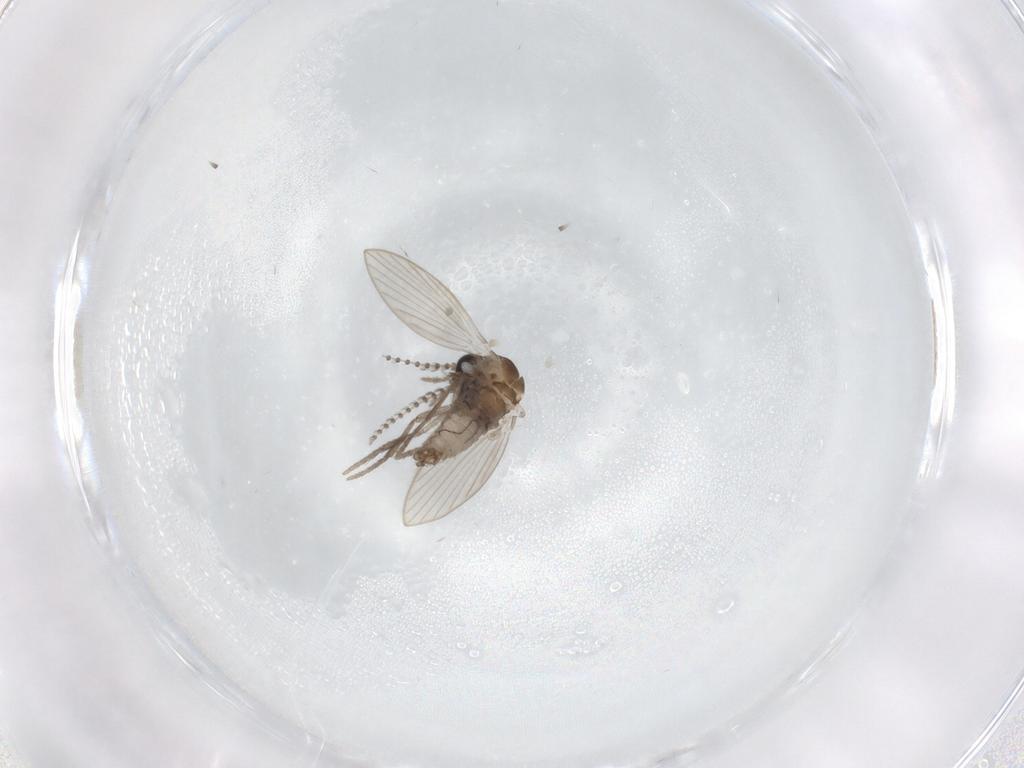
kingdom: Animalia
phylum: Arthropoda
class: Insecta
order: Diptera
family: Psychodidae
